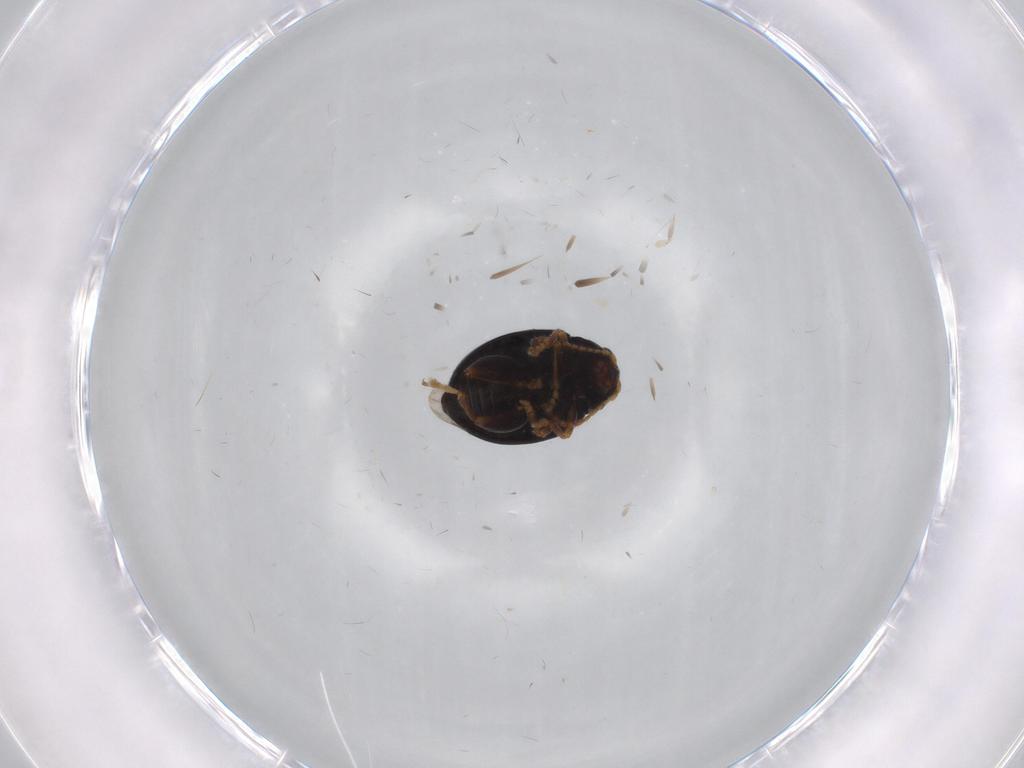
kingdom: Animalia
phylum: Arthropoda
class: Insecta
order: Coleoptera
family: Chrysomelidae
